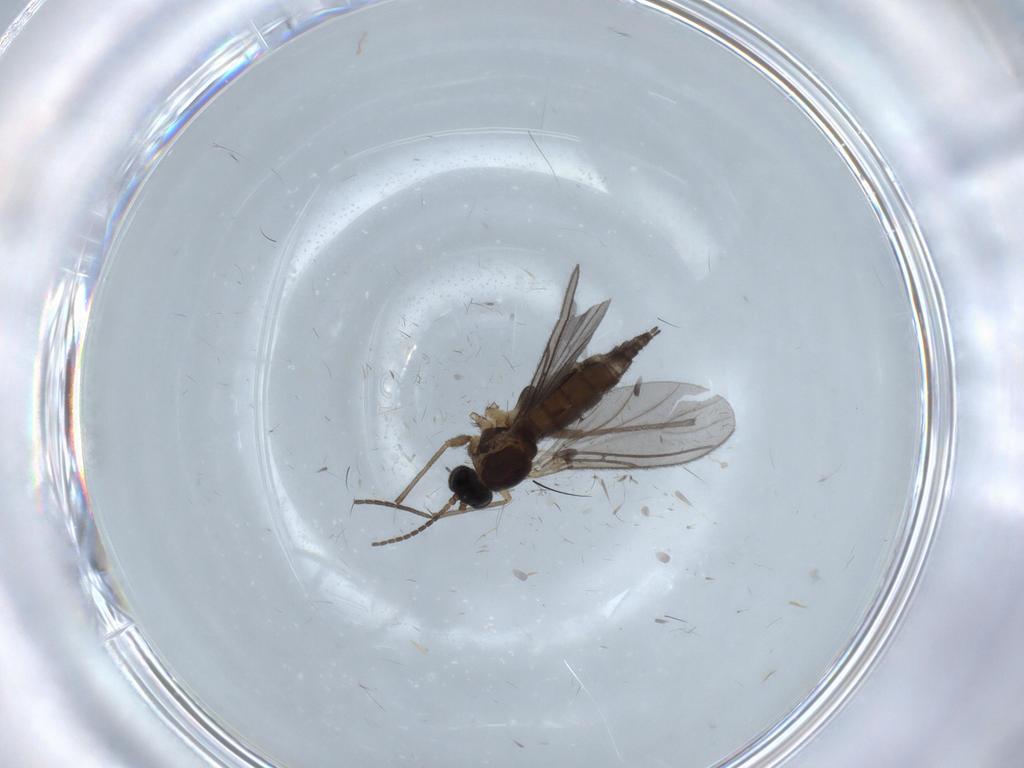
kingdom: Animalia
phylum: Arthropoda
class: Insecta
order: Diptera
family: Sciaridae
